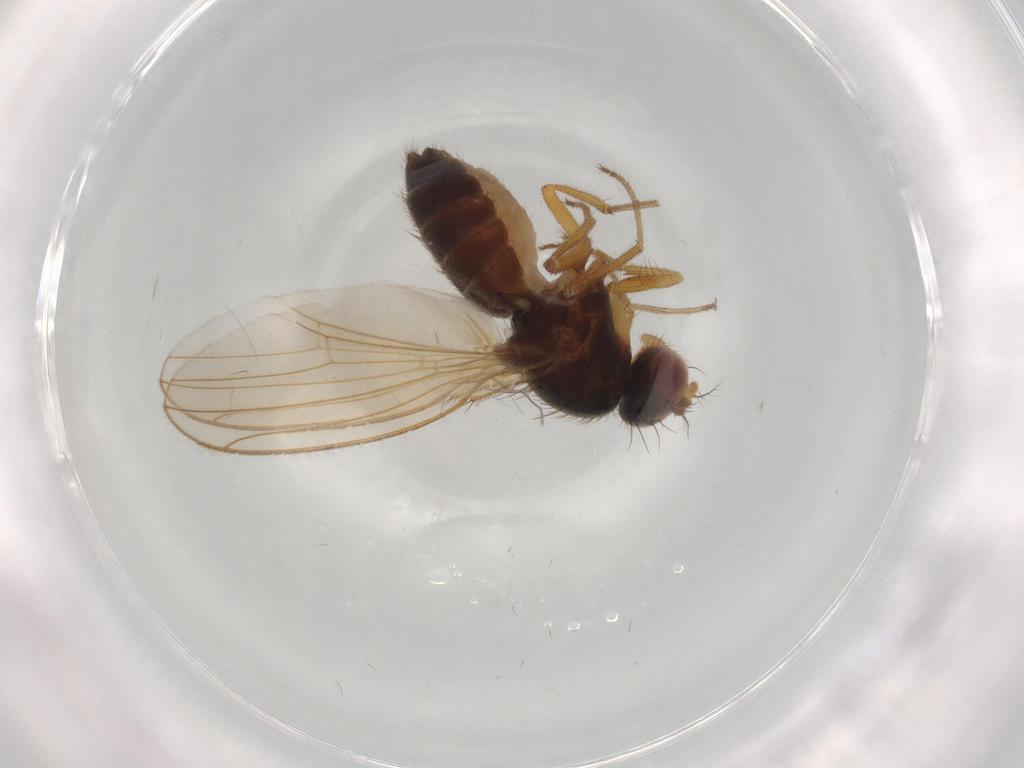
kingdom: Animalia
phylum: Arthropoda
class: Insecta
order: Diptera
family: Drosophilidae
